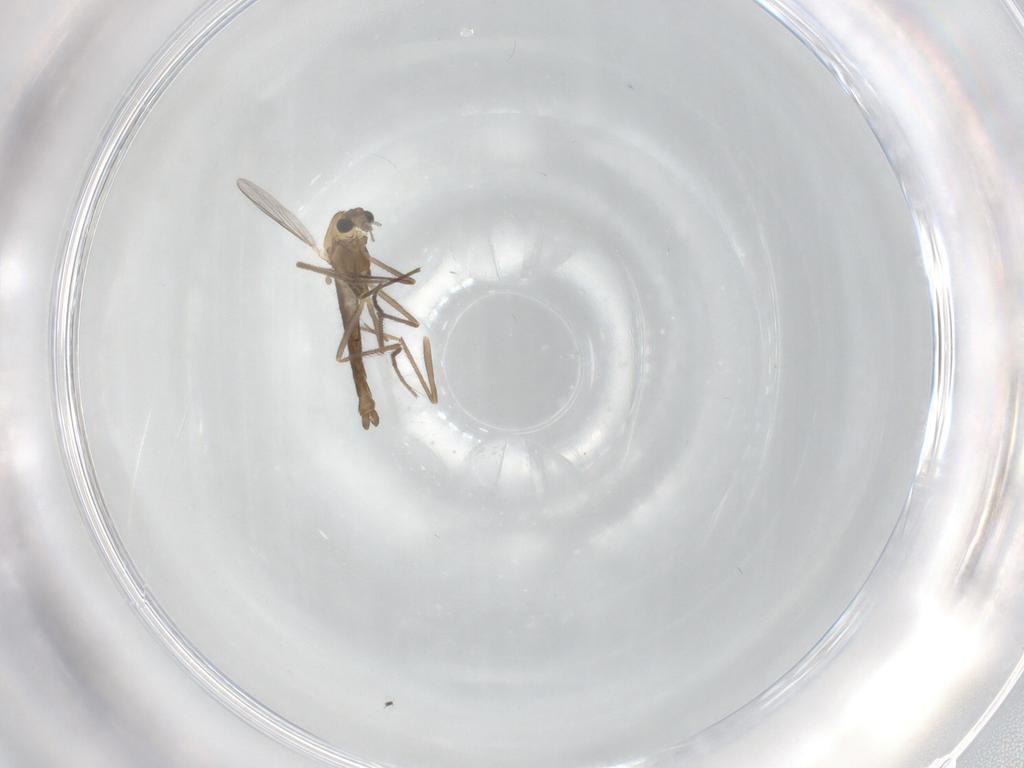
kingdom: Animalia
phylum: Arthropoda
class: Insecta
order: Diptera
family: Chironomidae
